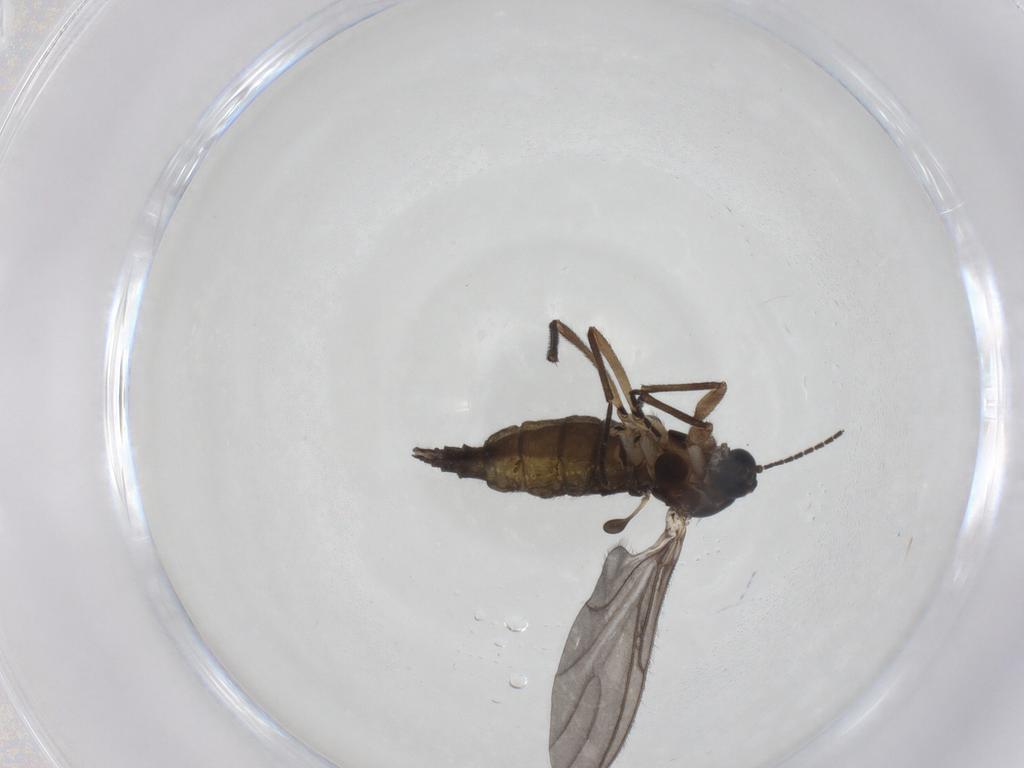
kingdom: Animalia
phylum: Arthropoda
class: Insecta
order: Diptera
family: Sciaridae
